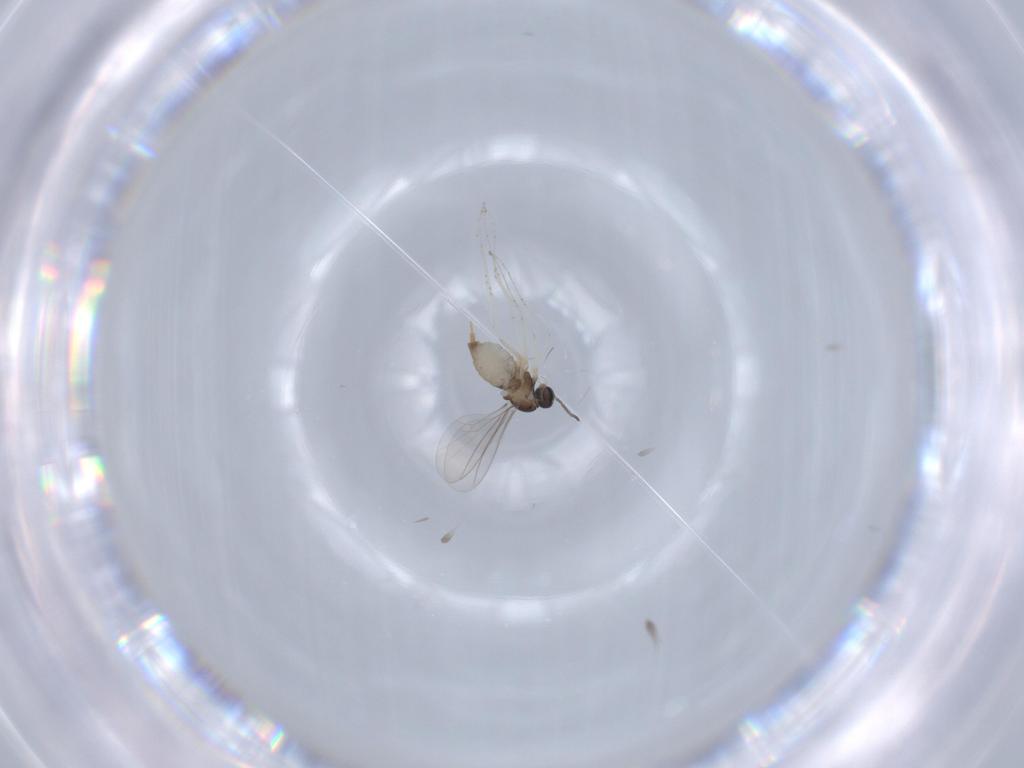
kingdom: Animalia
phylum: Arthropoda
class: Insecta
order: Diptera
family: Cecidomyiidae
